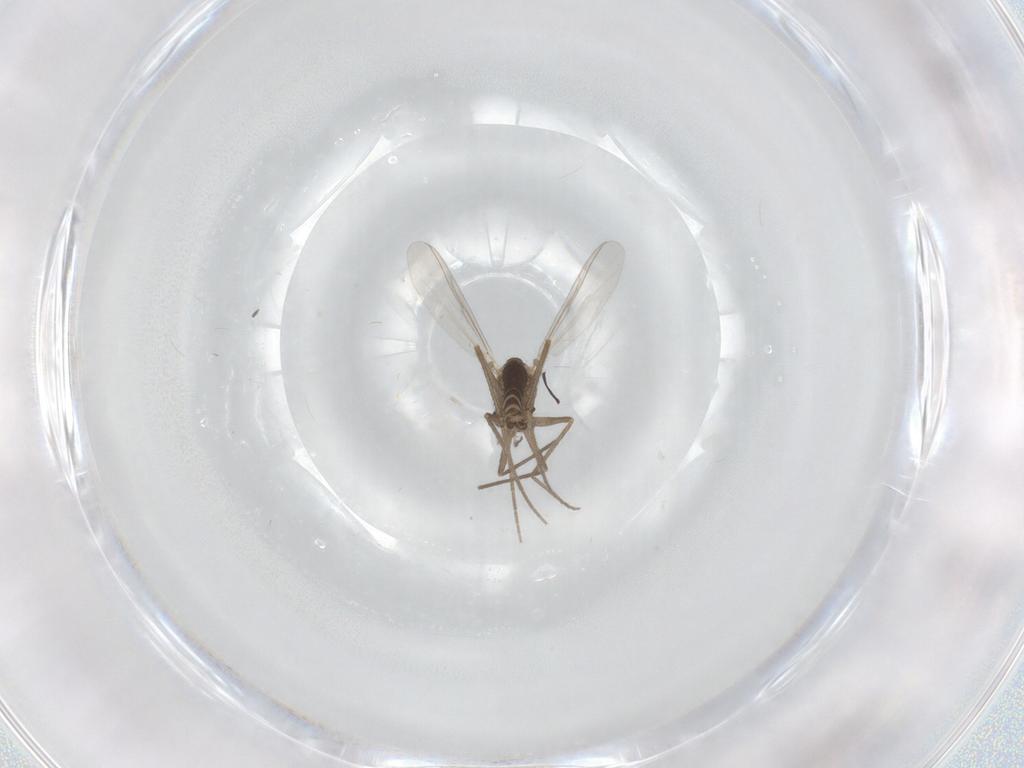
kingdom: Animalia
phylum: Arthropoda
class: Insecta
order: Diptera
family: Chironomidae
